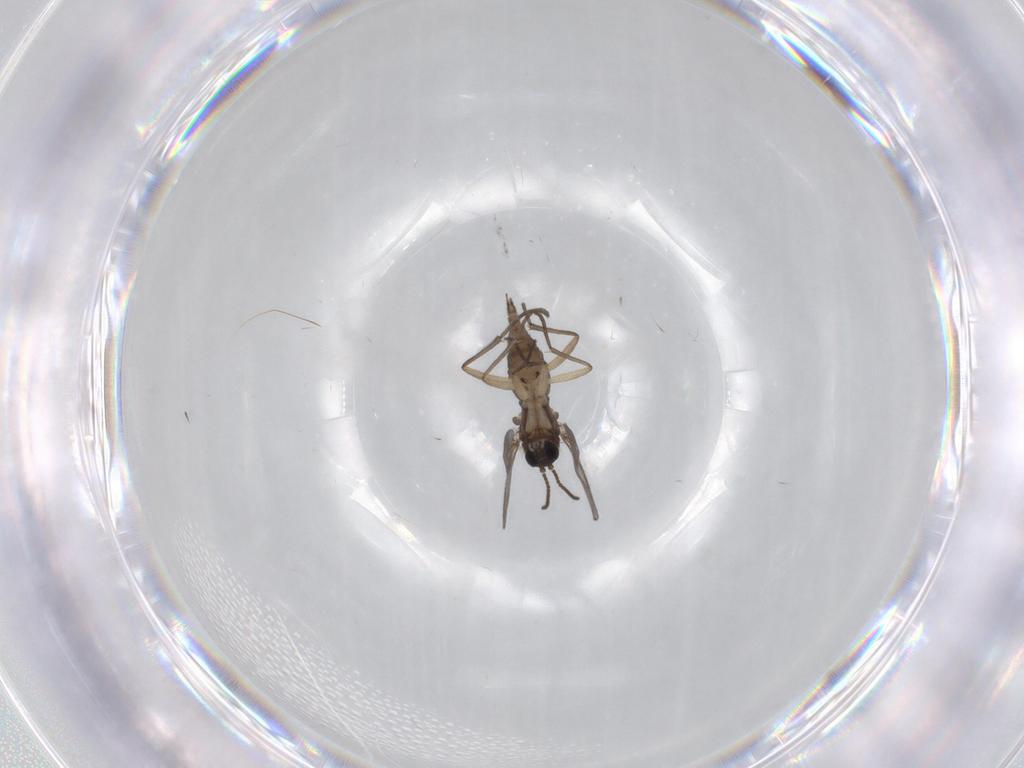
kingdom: Animalia
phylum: Arthropoda
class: Insecta
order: Diptera
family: Sciaridae
